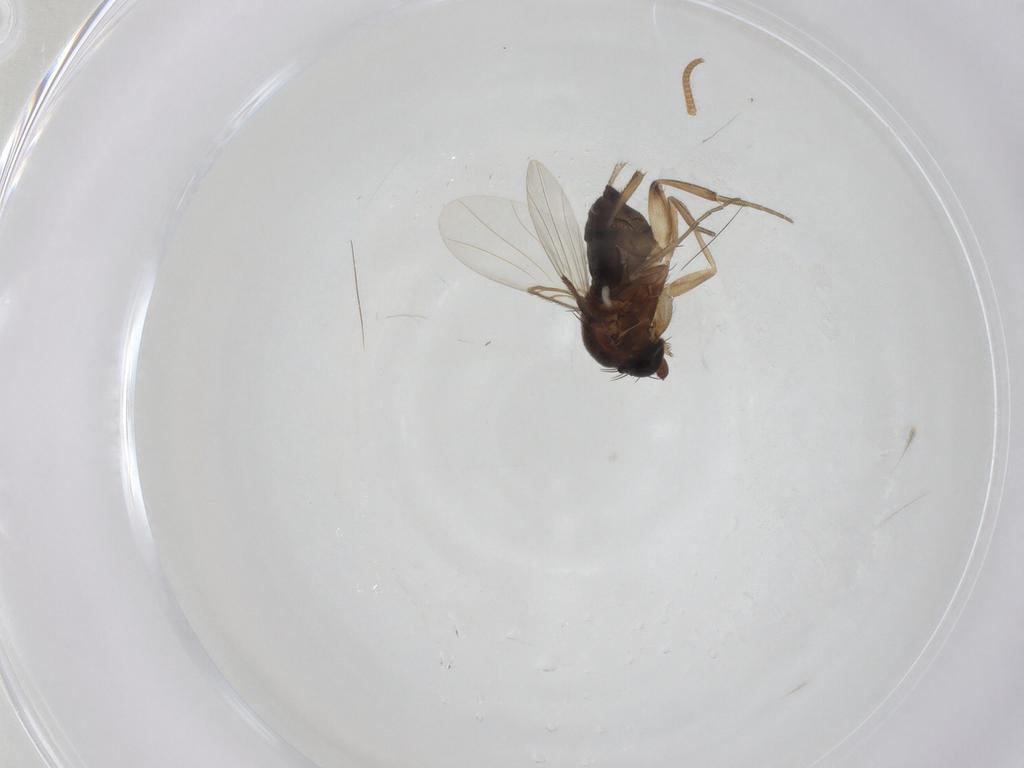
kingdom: Animalia
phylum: Arthropoda
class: Insecta
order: Diptera
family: Phoridae
